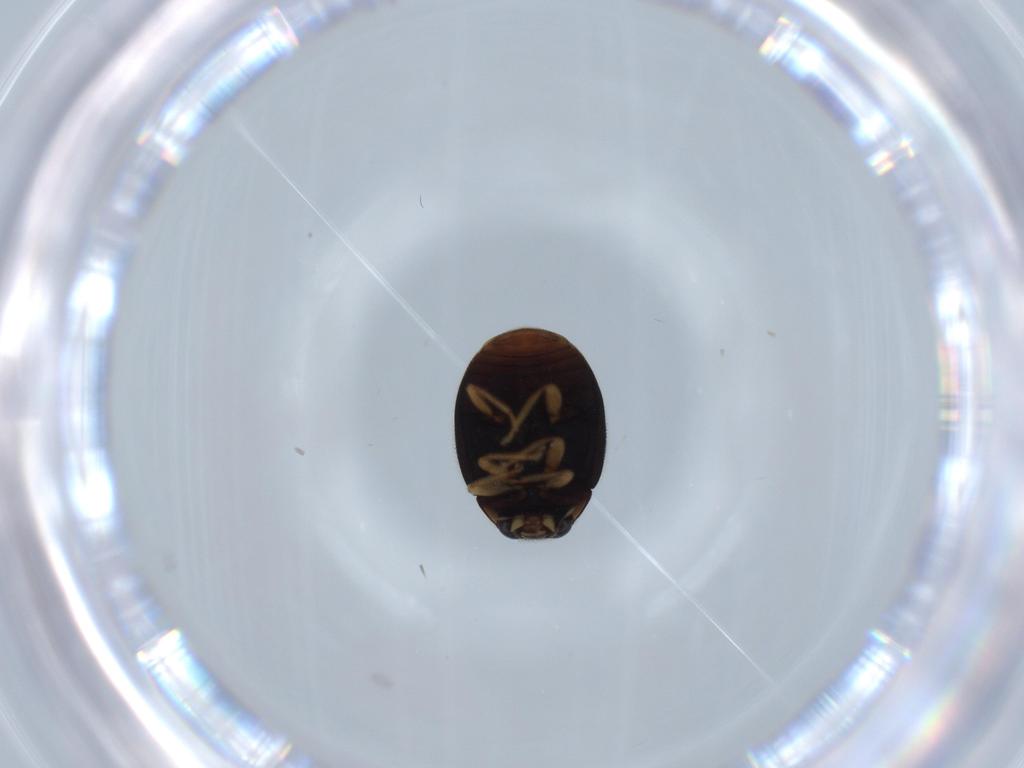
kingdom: Animalia
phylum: Arthropoda
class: Insecta
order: Coleoptera
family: Coccinellidae
